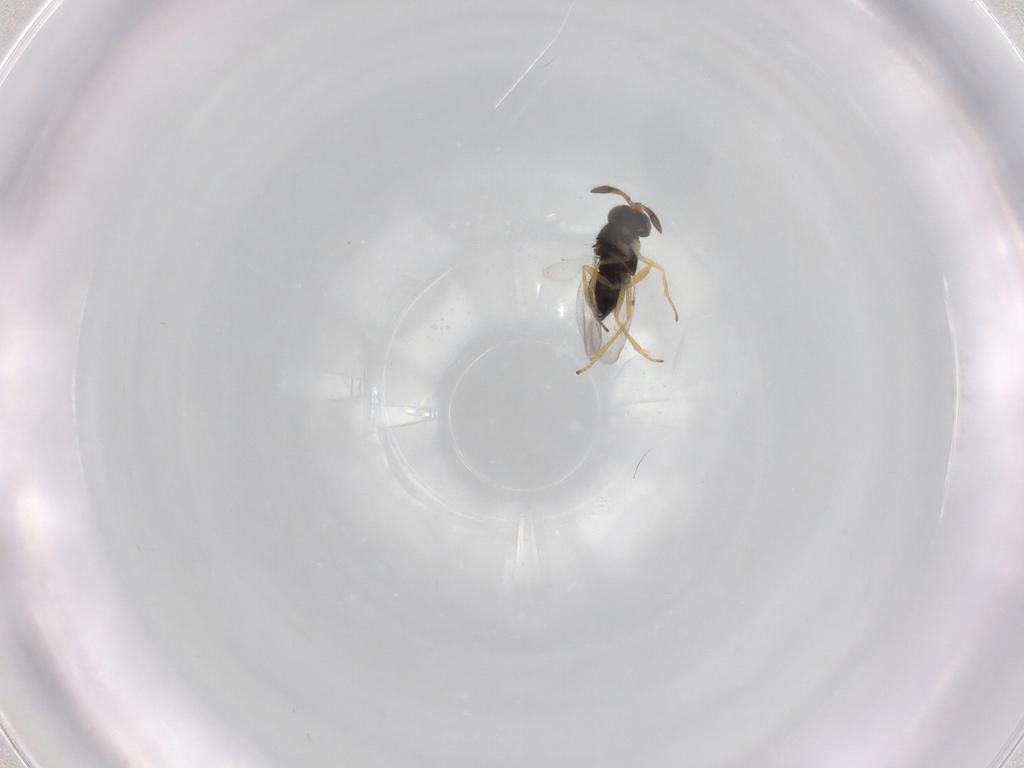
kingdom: Animalia
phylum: Arthropoda
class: Insecta
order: Hymenoptera
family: Encyrtidae
